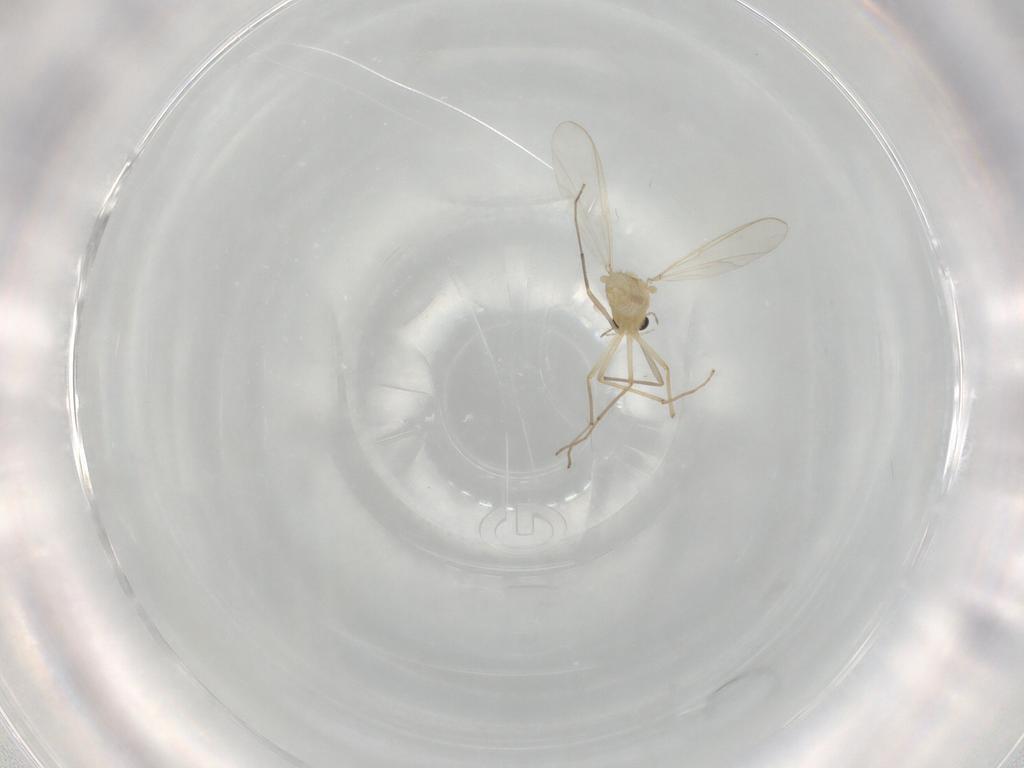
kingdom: Animalia
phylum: Arthropoda
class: Insecta
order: Diptera
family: Chironomidae
